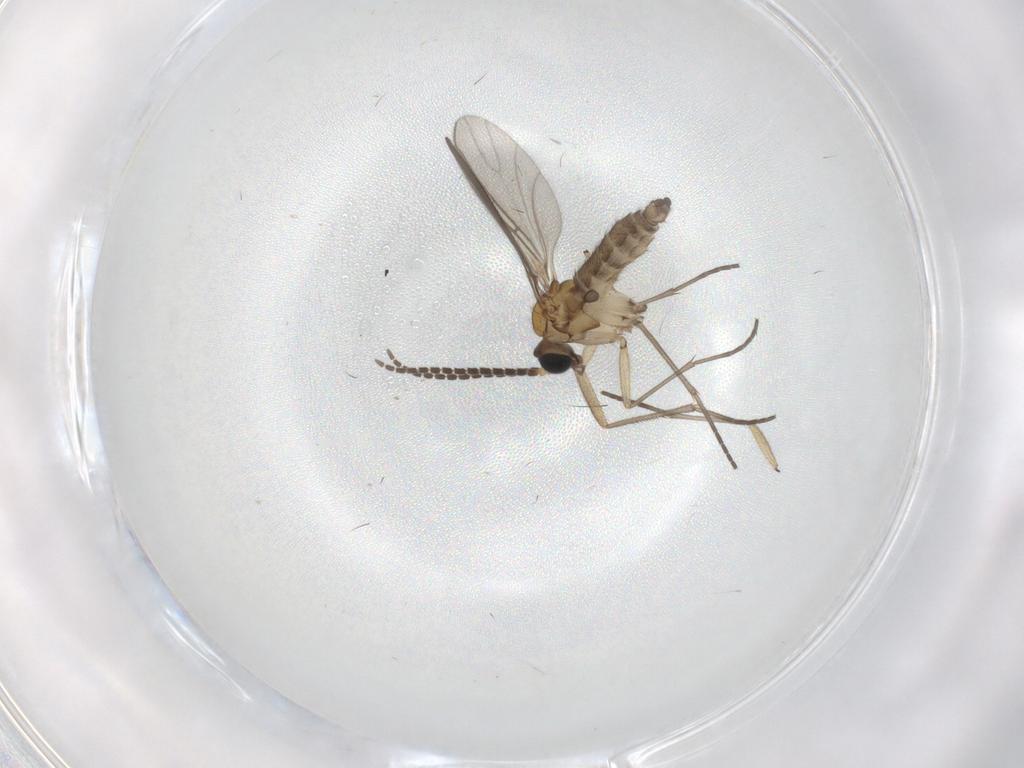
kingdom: Animalia
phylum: Arthropoda
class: Insecta
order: Diptera
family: Sciaridae
